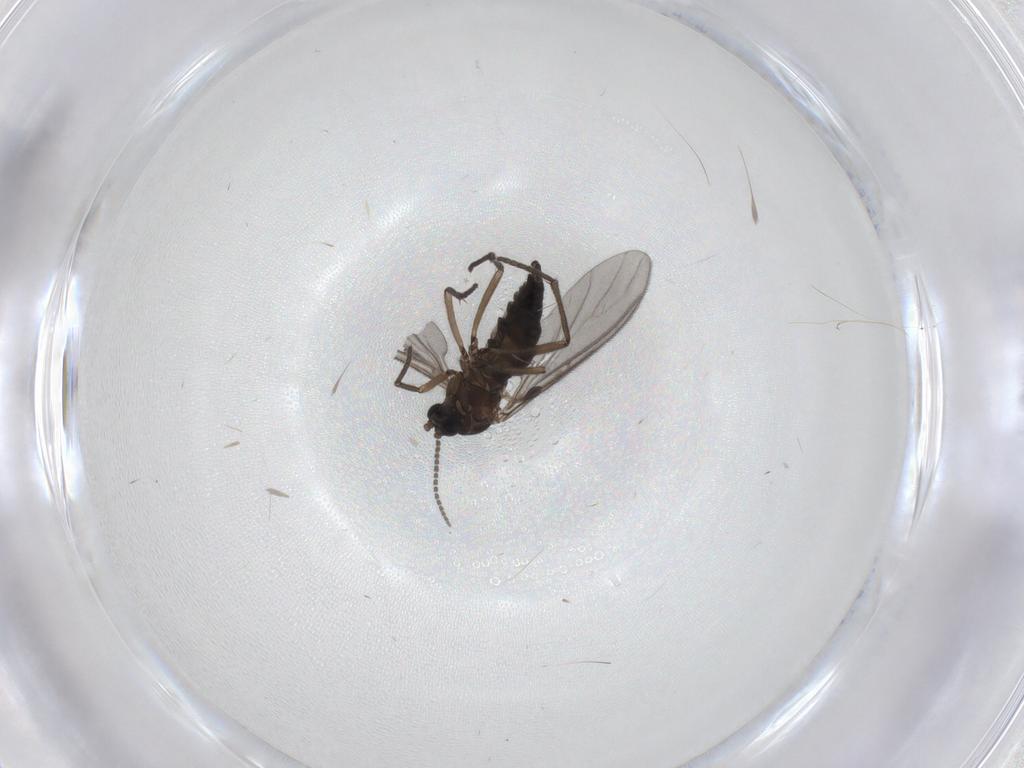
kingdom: Animalia
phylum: Arthropoda
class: Insecta
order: Diptera
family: Sciaridae
